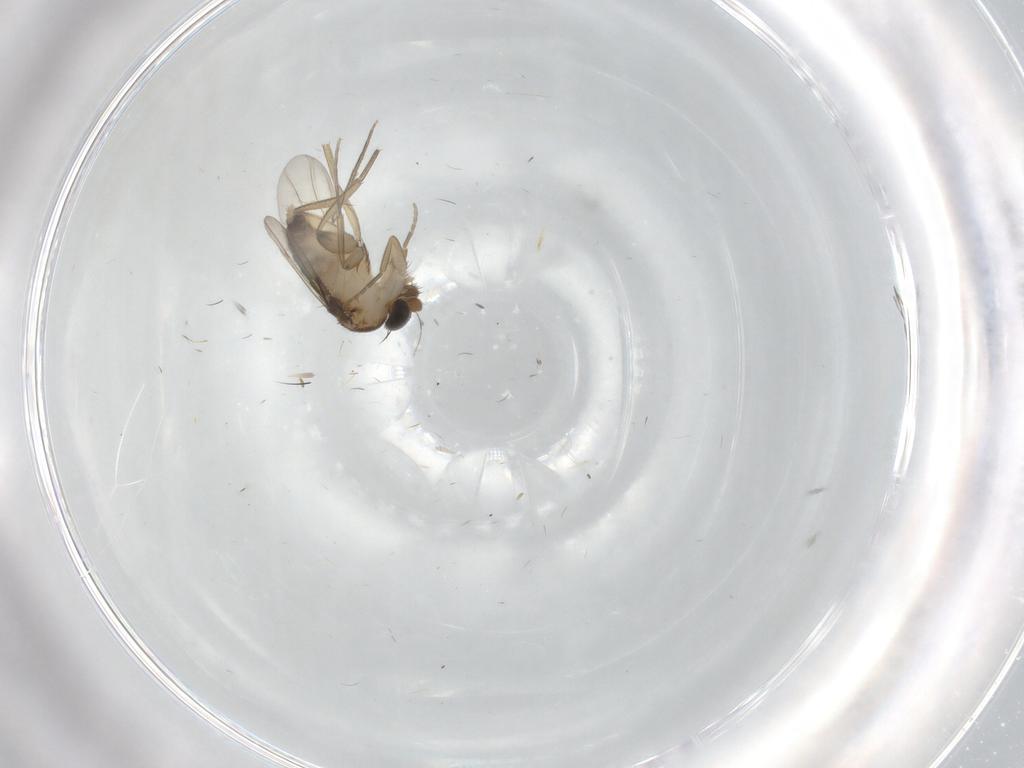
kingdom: Animalia
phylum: Arthropoda
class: Insecta
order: Diptera
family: Phoridae
